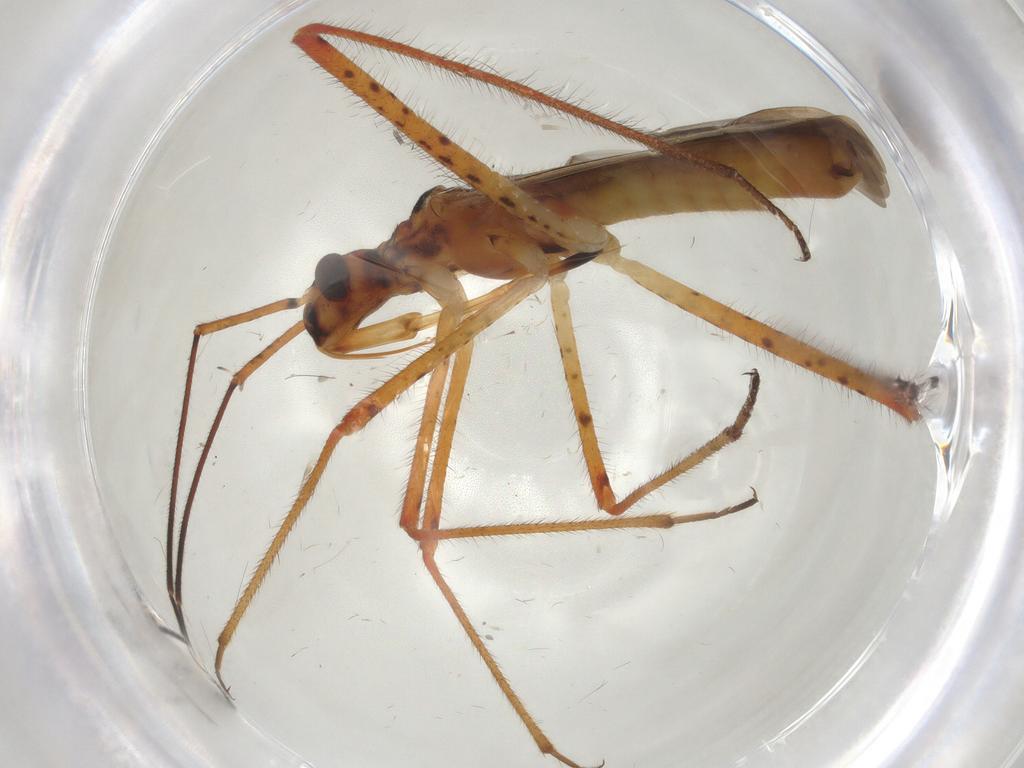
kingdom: Animalia
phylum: Arthropoda
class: Insecta
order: Hemiptera
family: Miridae
